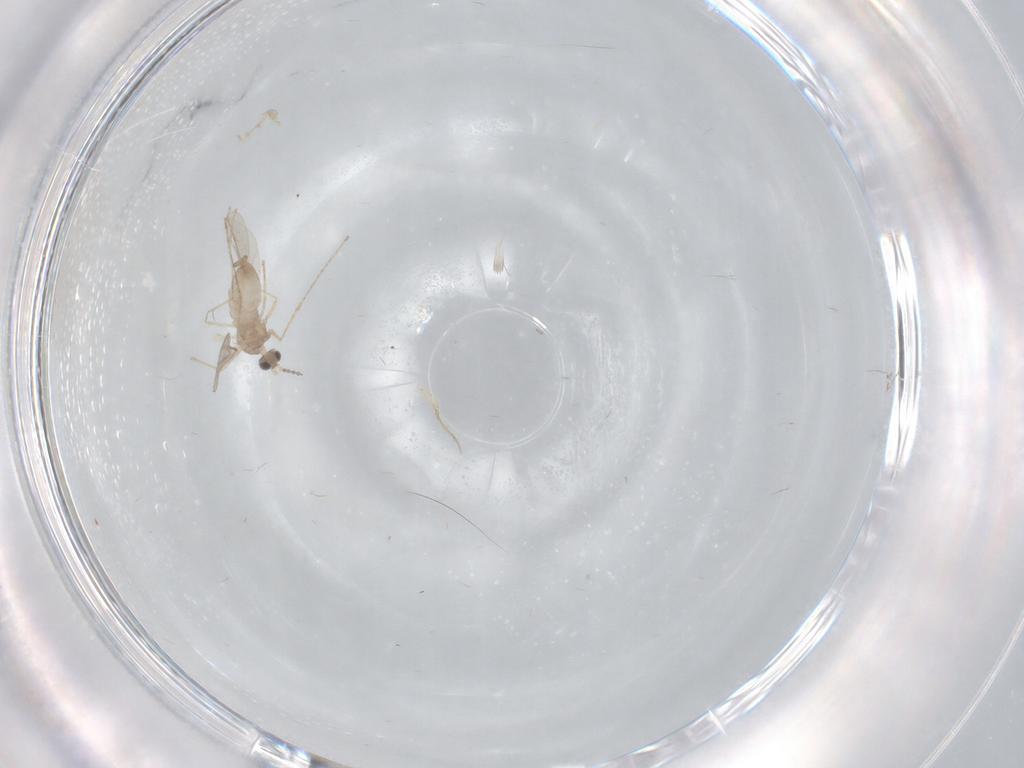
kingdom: Animalia
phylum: Arthropoda
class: Insecta
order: Diptera
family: Cecidomyiidae
